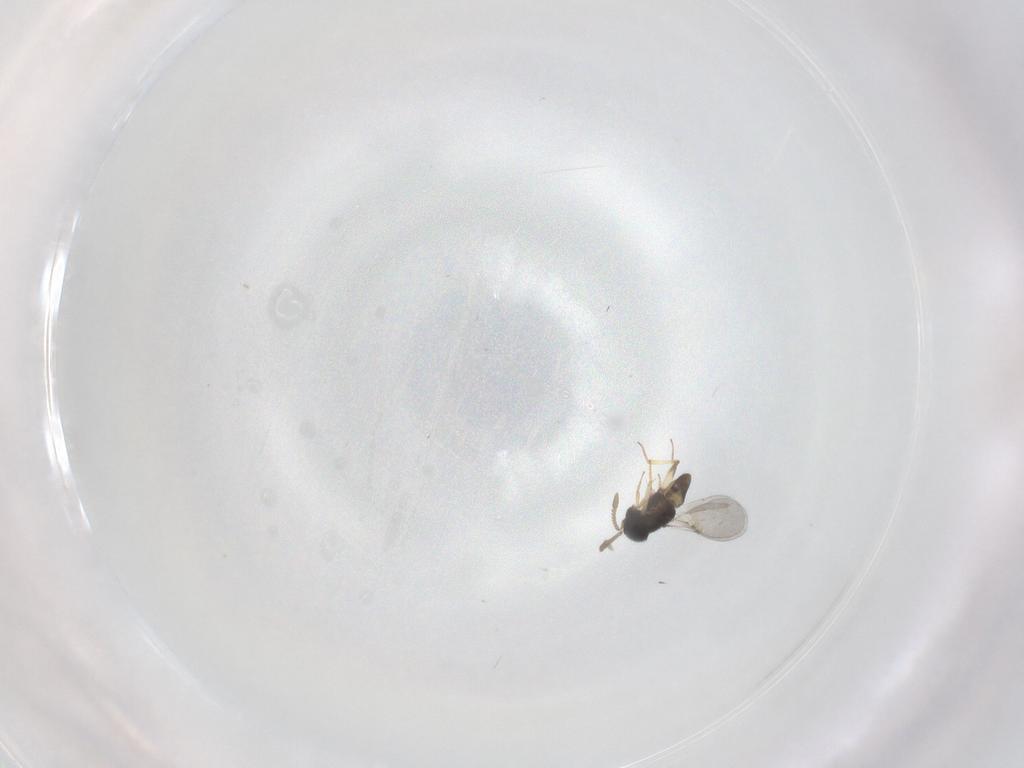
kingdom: Animalia
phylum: Arthropoda
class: Insecta
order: Hymenoptera
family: Encyrtidae
